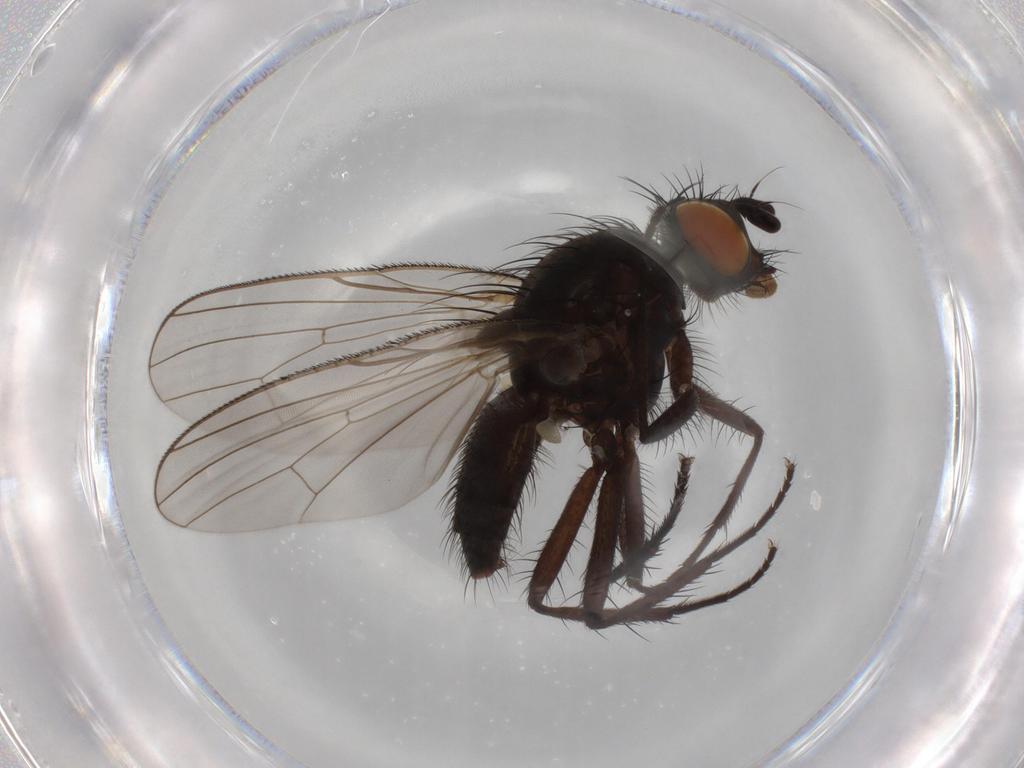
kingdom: Animalia
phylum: Arthropoda
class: Insecta
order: Diptera
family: Anthomyiidae
